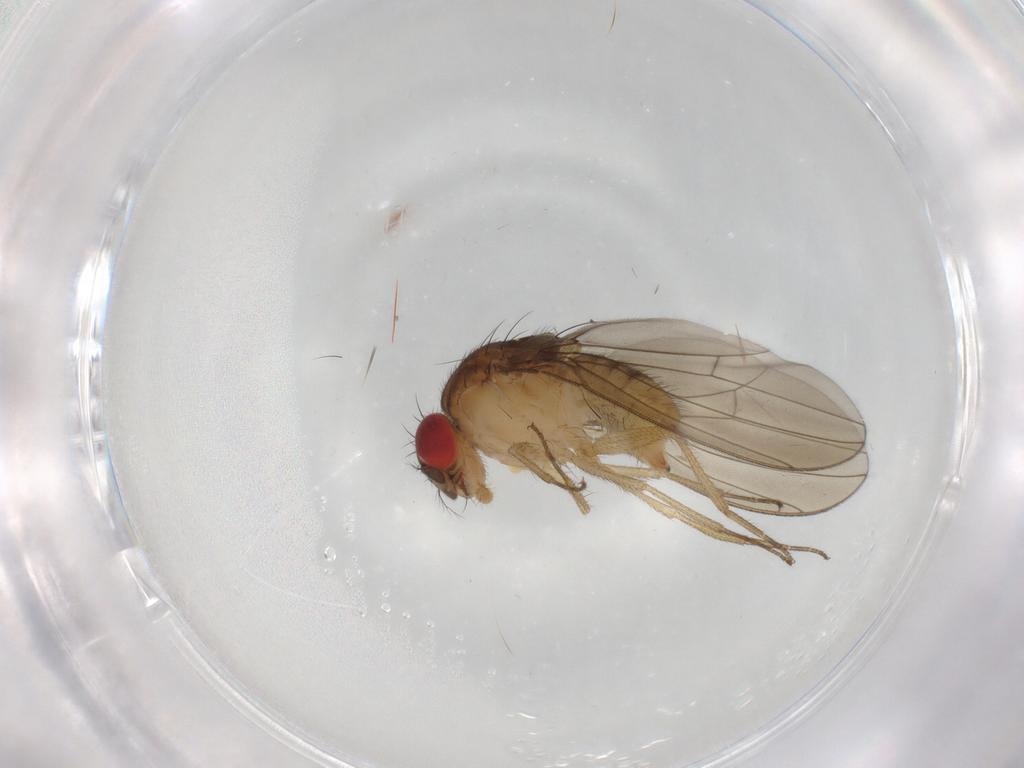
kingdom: Animalia
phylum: Arthropoda
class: Insecta
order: Diptera
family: Drosophilidae
